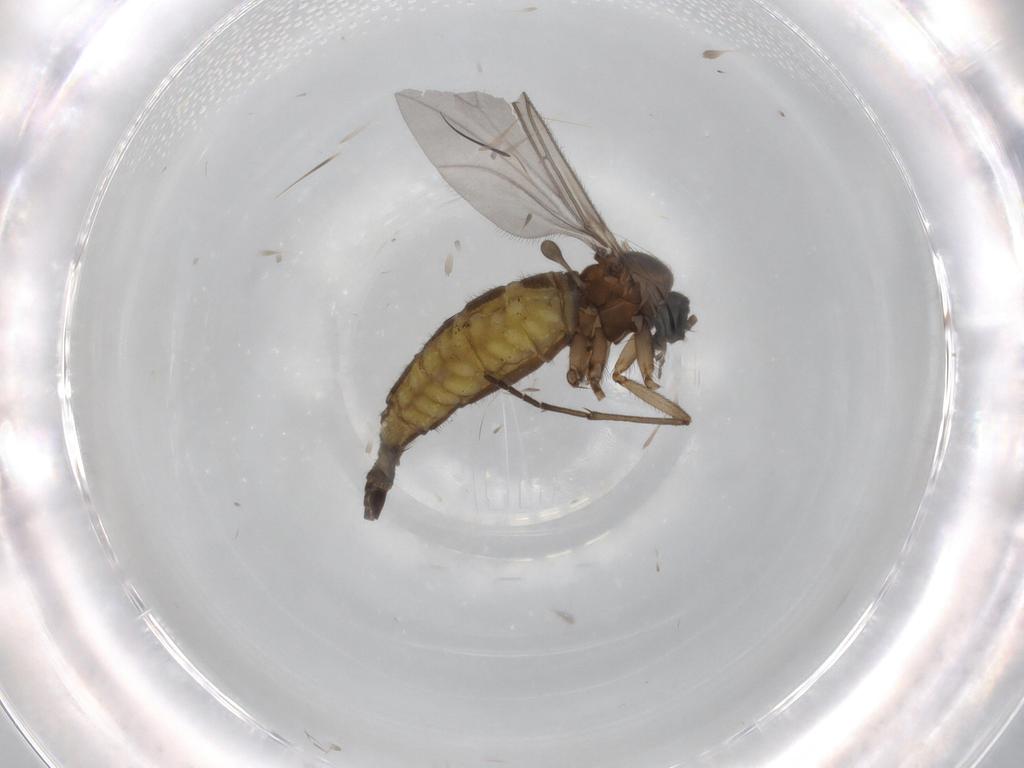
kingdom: Animalia
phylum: Arthropoda
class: Insecta
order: Diptera
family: Sciaridae
